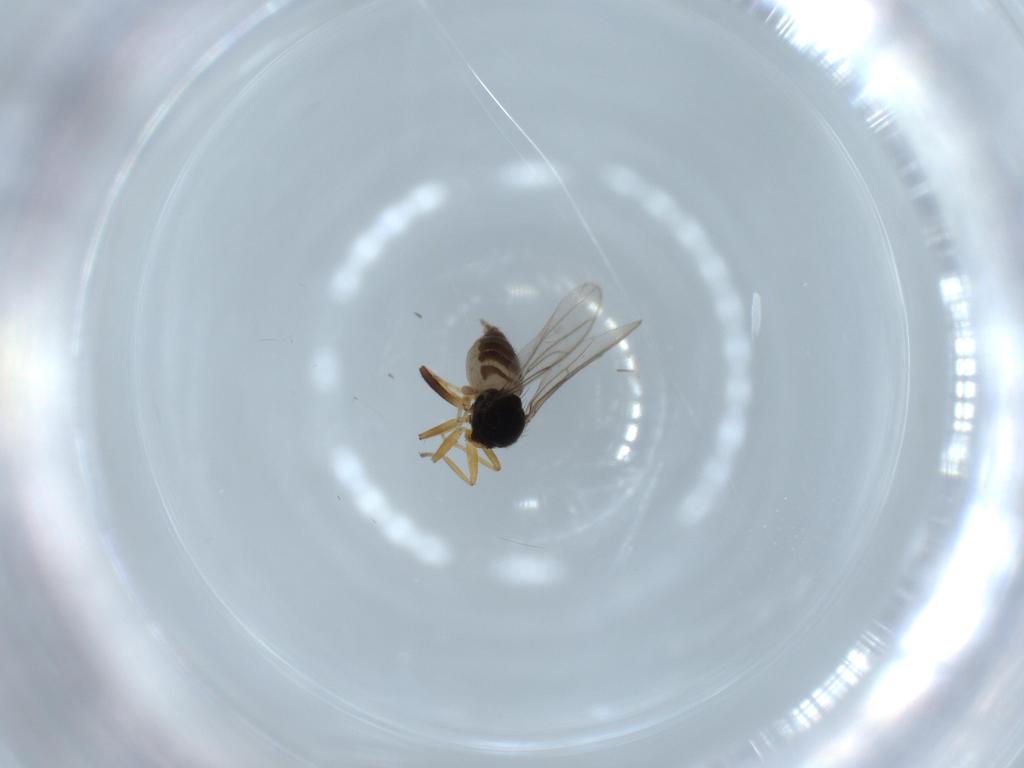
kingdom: Animalia
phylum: Arthropoda
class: Insecta
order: Diptera
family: Hybotidae
